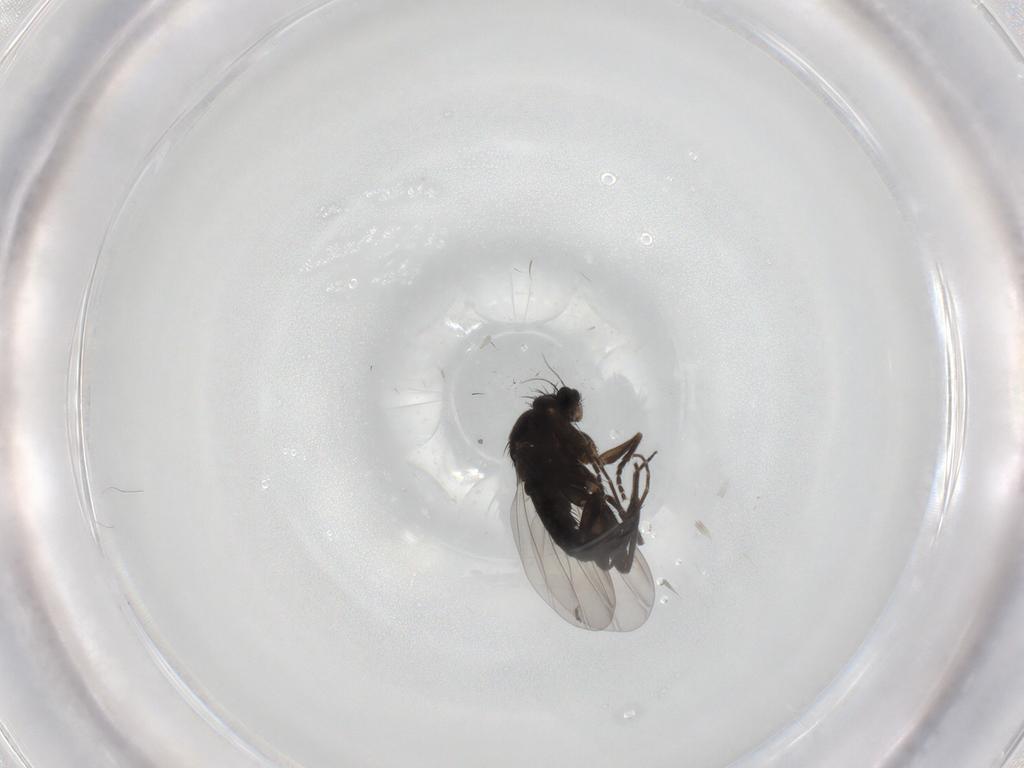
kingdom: Animalia
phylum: Arthropoda
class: Insecta
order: Diptera
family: Phoridae
